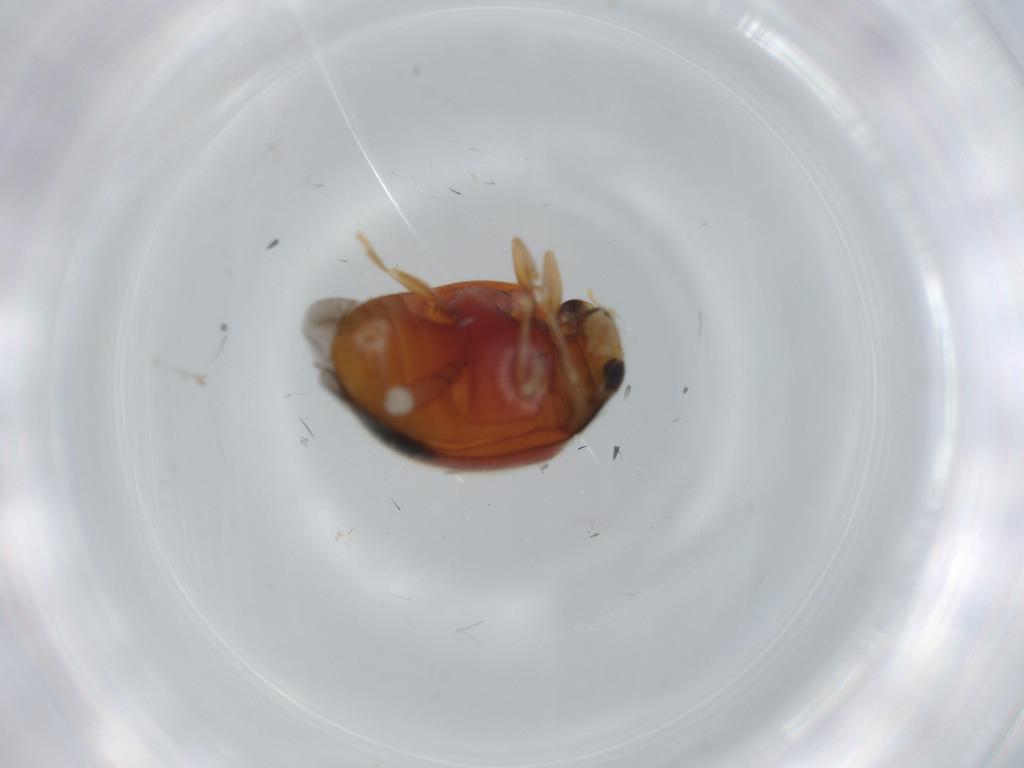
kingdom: Animalia
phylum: Arthropoda
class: Insecta
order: Coleoptera
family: Coccinellidae
